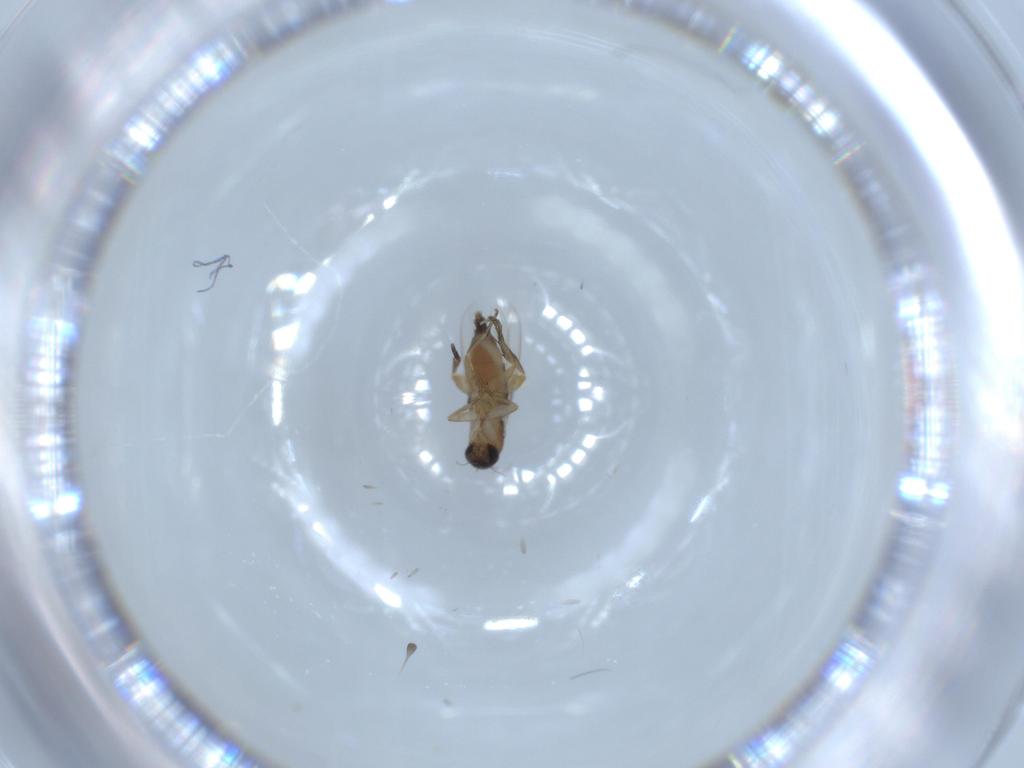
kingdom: Animalia
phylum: Arthropoda
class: Insecta
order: Diptera
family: Phoridae
